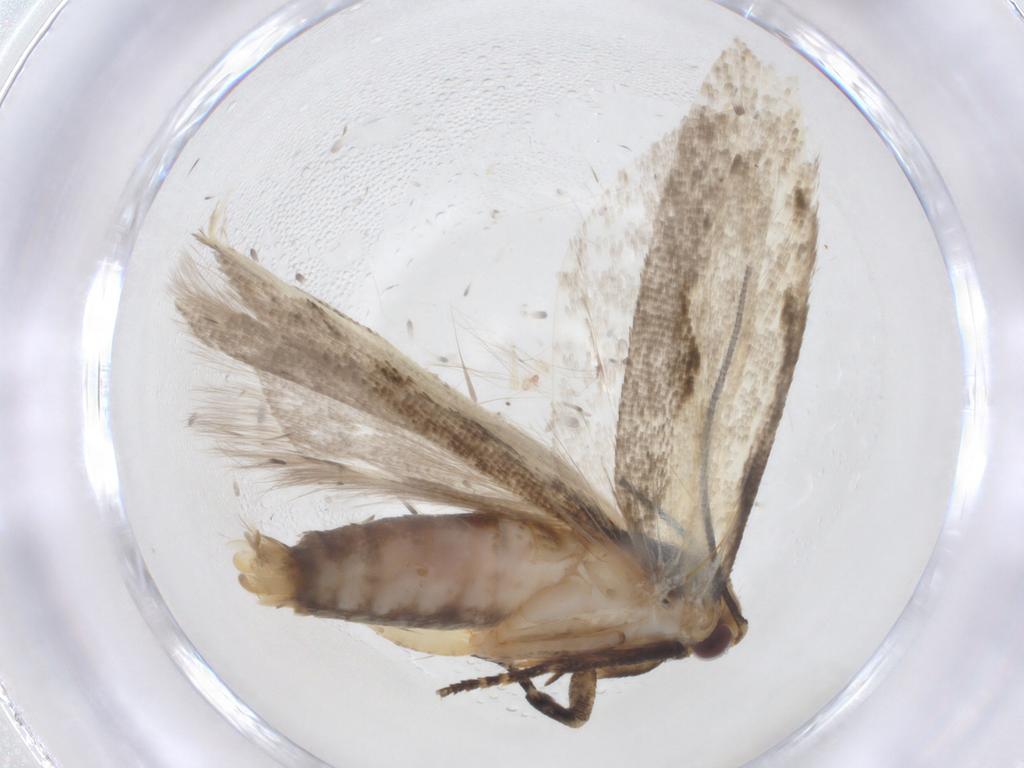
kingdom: Animalia
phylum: Arthropoda
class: Insecta
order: Lepidoptera
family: Gelechiidae
